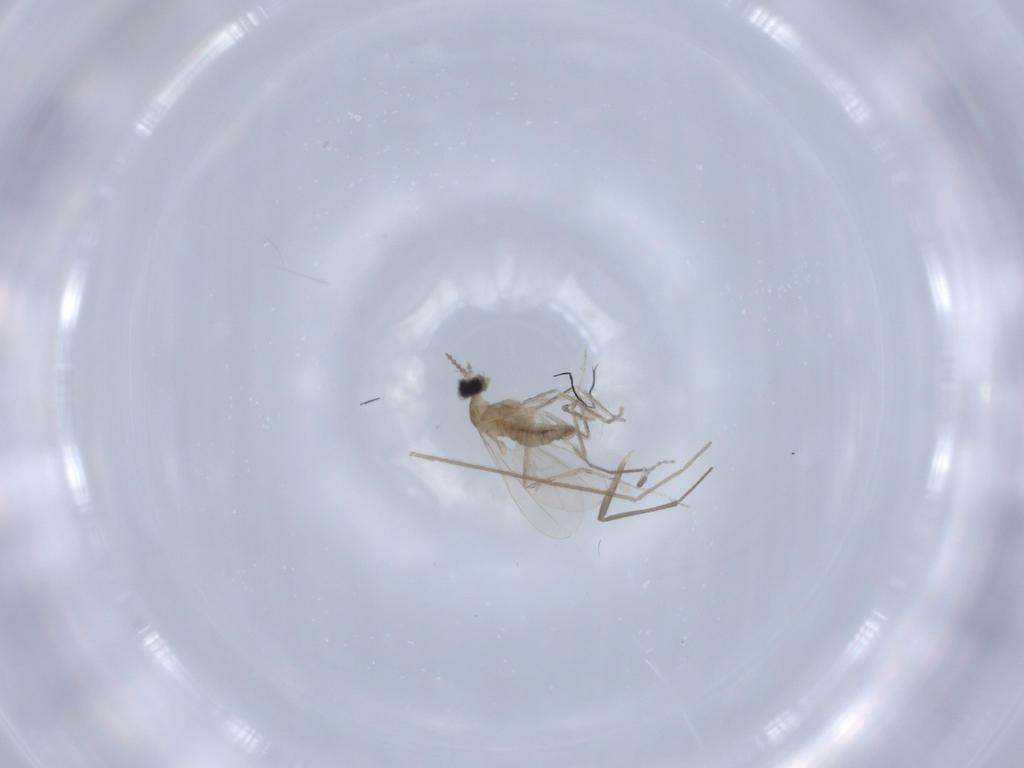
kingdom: Animalia
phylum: Arthropoda
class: Insecta
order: Diptera
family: Cecidomyiidae
